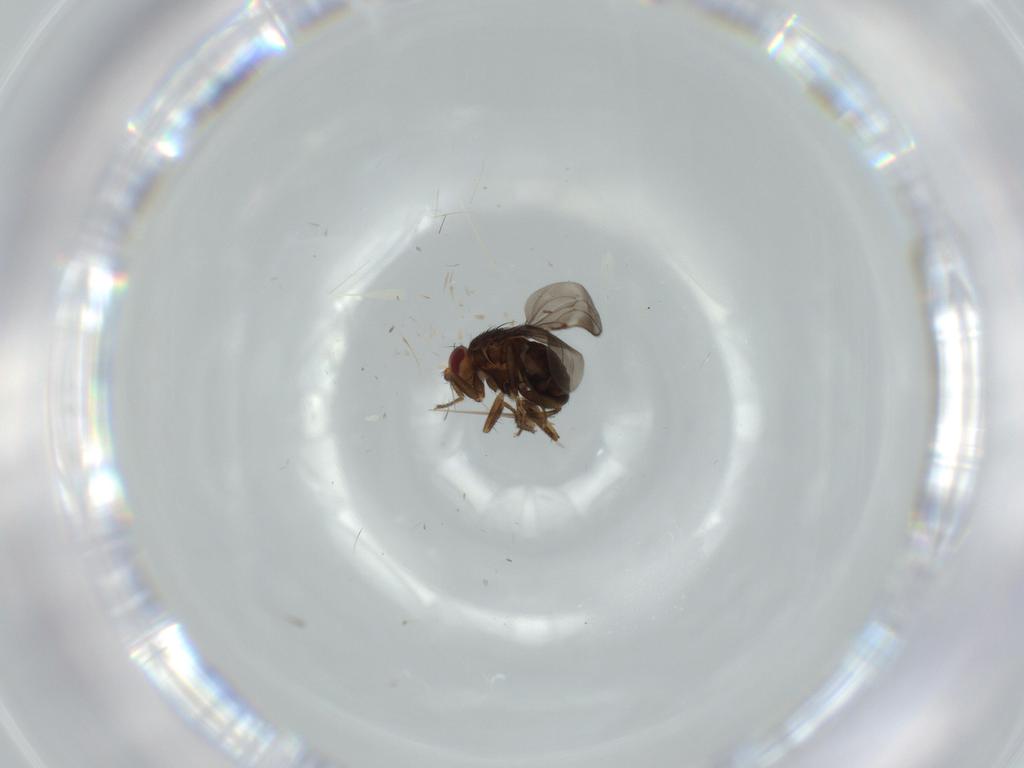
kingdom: Animalia
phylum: Arthropoda
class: Insecta
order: Diptera
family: Chironomidae
